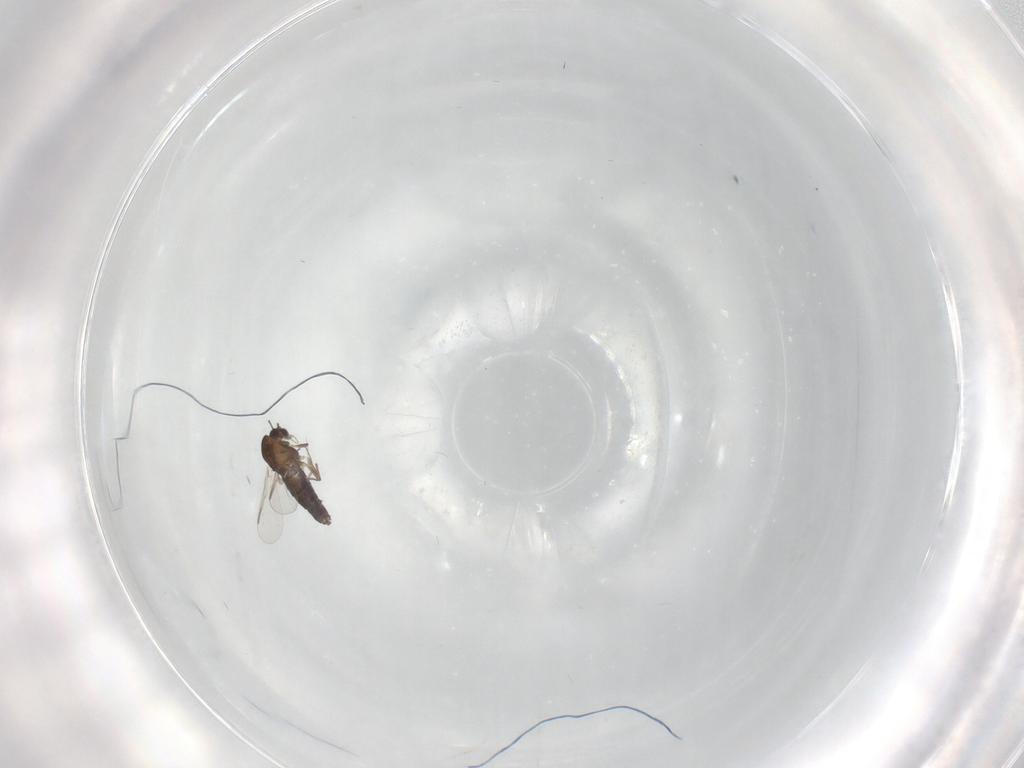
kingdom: Animalia
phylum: Arthropoda
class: Insecta
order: Diptera
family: Chironomidae
